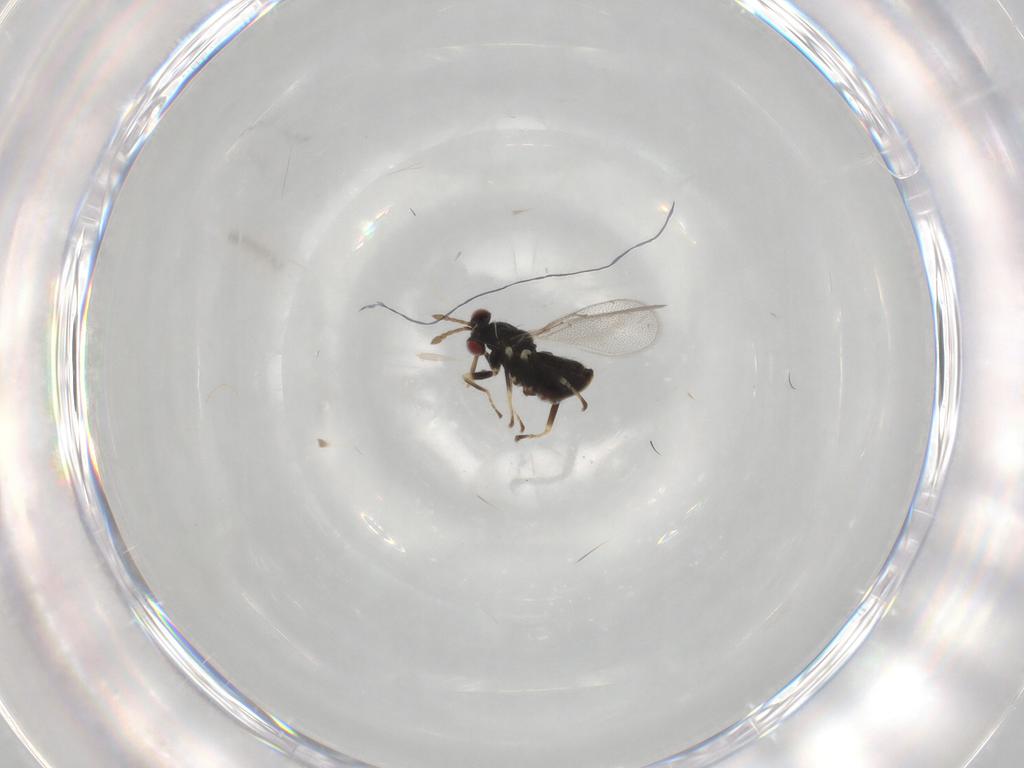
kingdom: Animalia
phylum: Arthropoda
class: Insecta
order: Hymenoptera
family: Eulophidae
